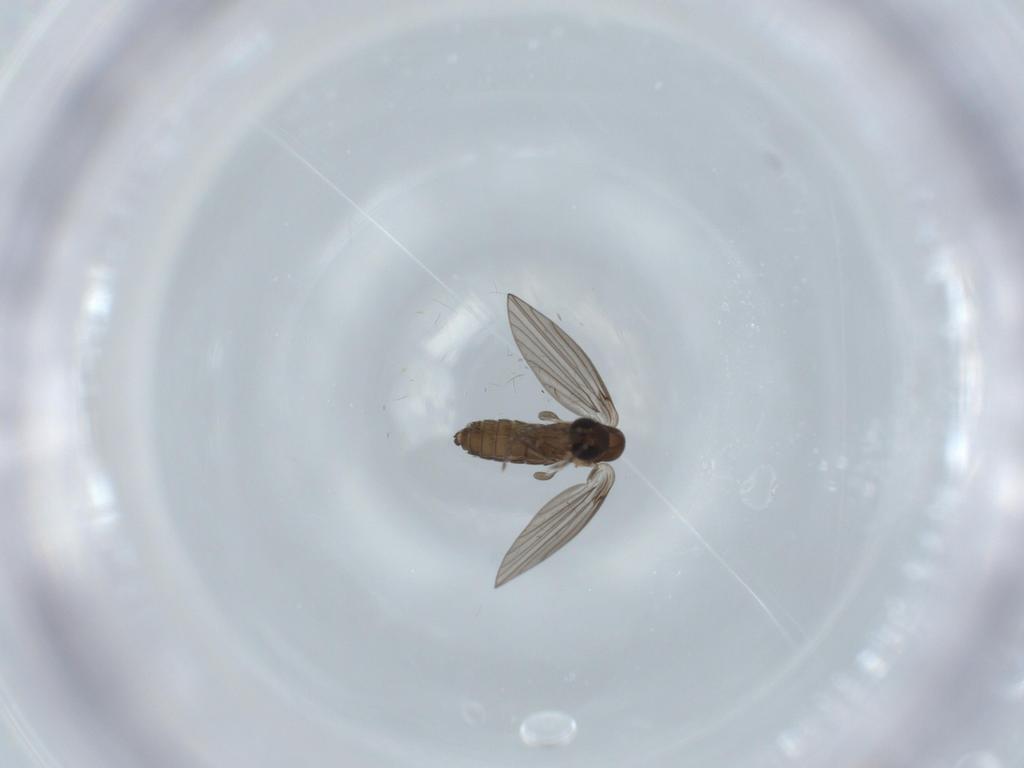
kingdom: Animalia
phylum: Arthropoda
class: Insecta
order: Diptera
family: Psychodidae
